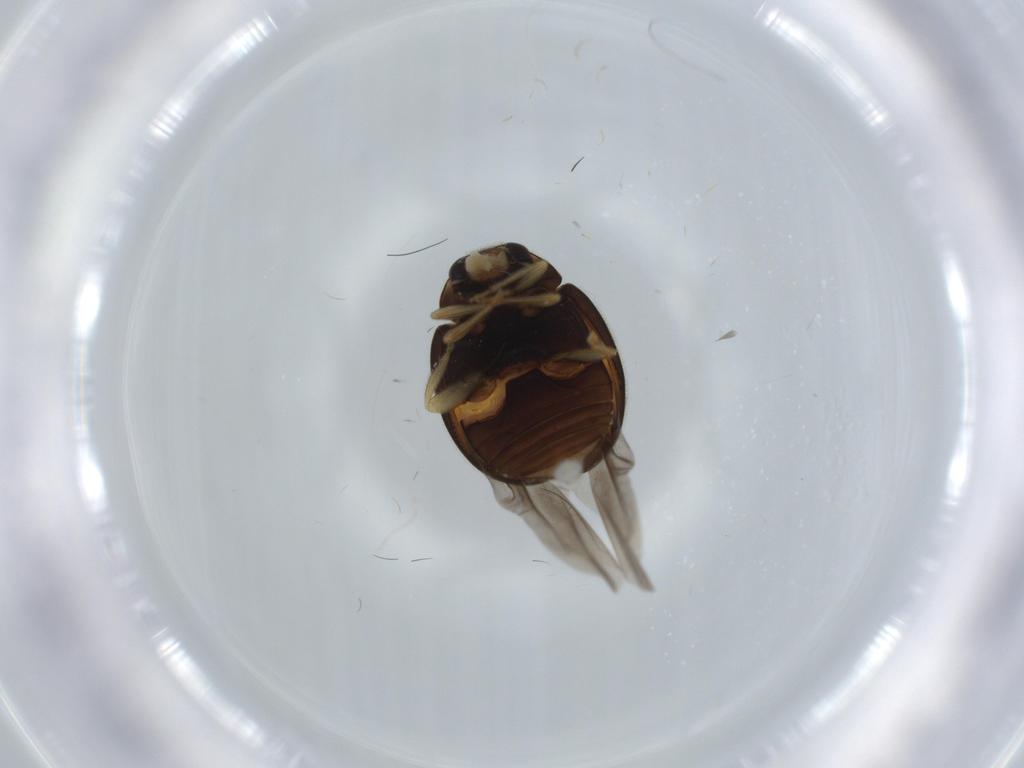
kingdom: Animalia
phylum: Arthropoda
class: Insecta
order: Coleoptera
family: Coccinellidae
